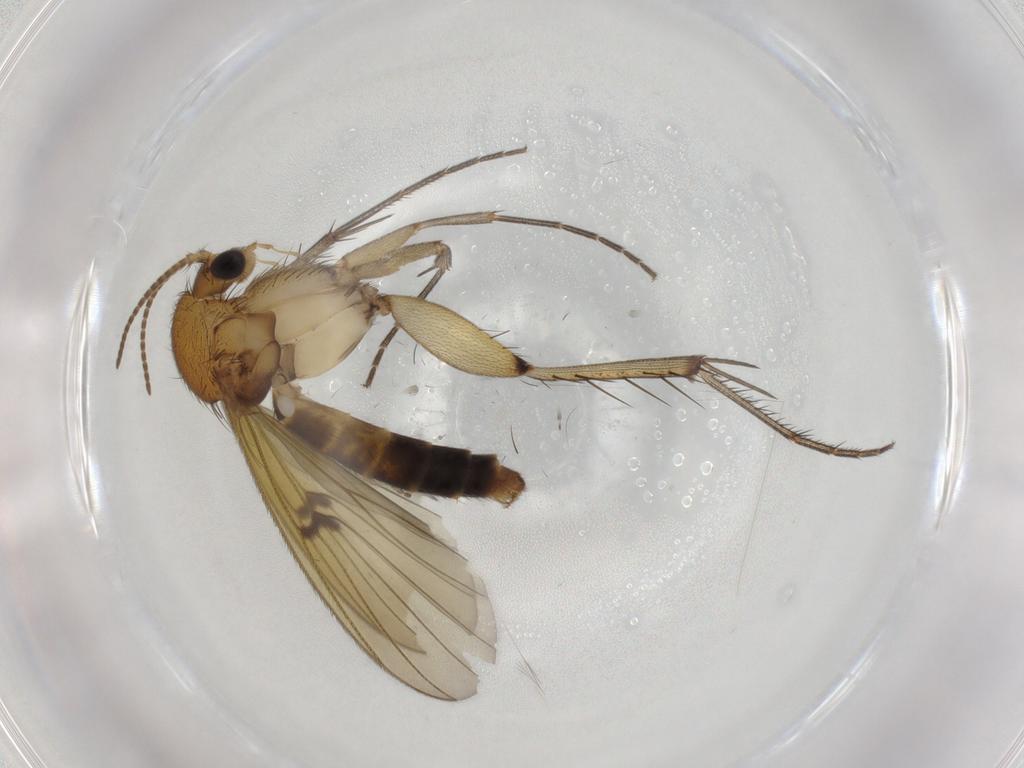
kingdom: Animalia
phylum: Arthropoda
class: Insecta
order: Diptera
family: Mycetophilidae
